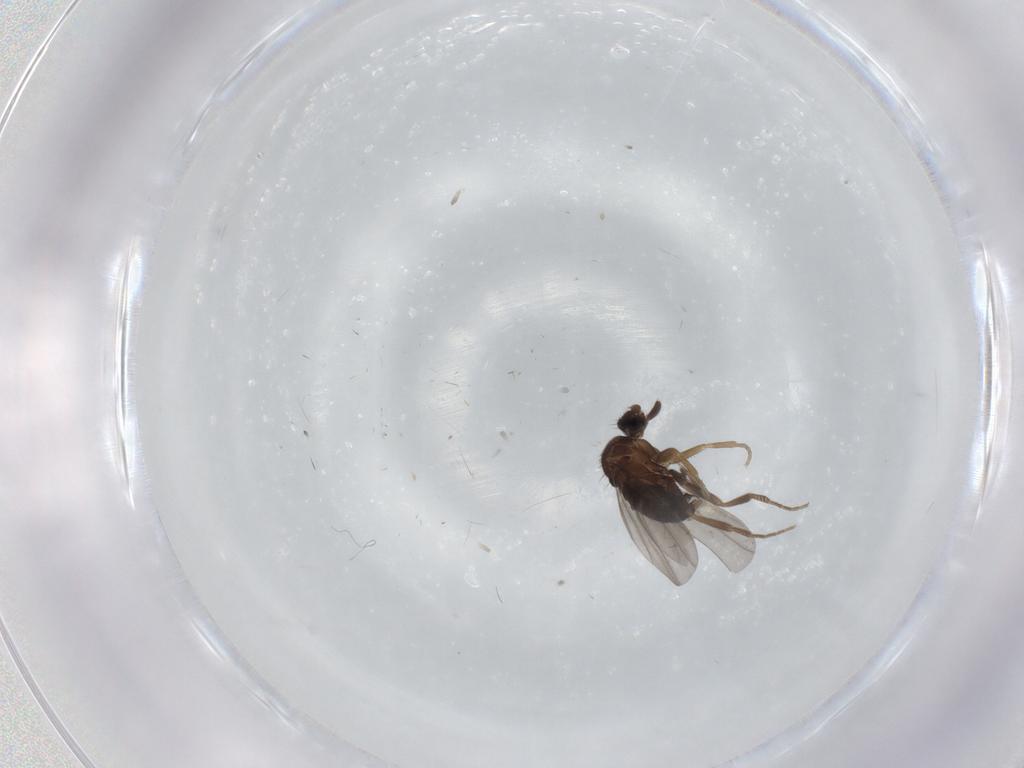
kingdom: Animalia
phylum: Arthropoda
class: Insecta
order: Diptera
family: Phoridae
